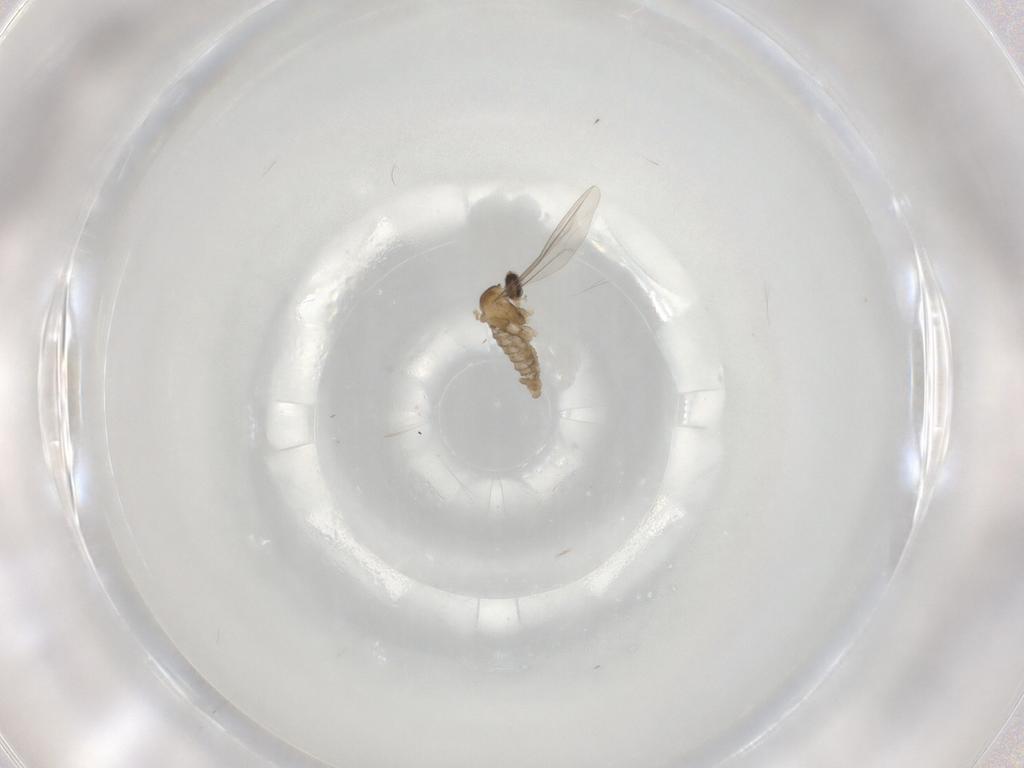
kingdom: Animalia
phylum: Arthropoda
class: Insecta
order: Diptera
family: Cecidomyiidae
